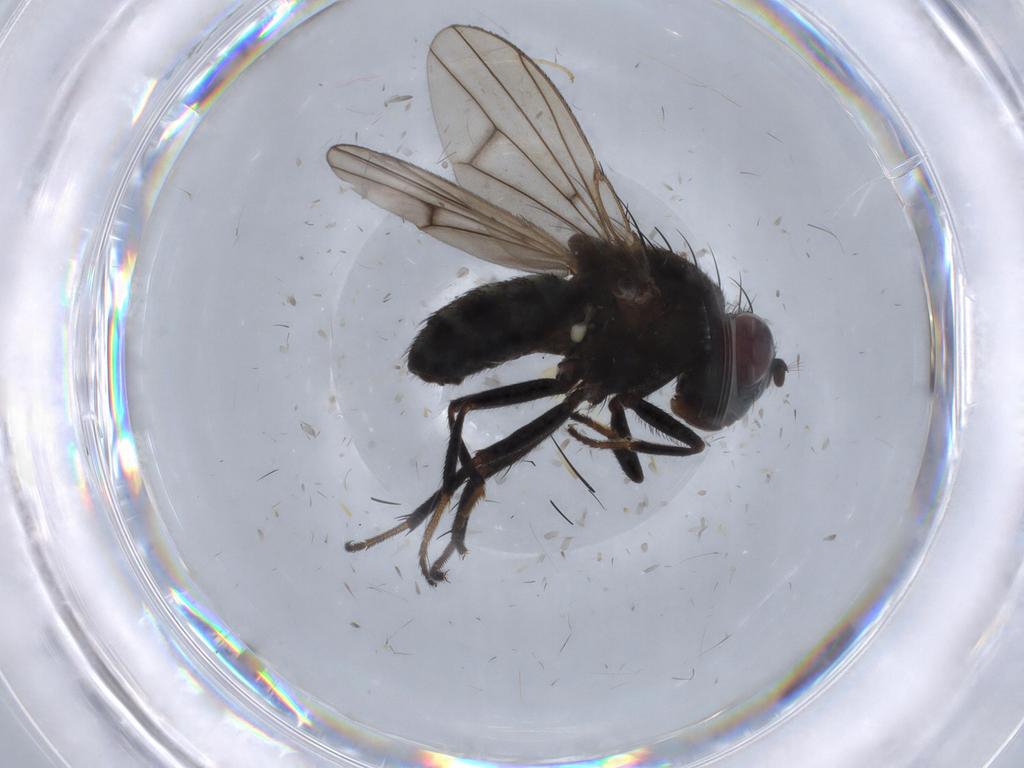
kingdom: Animalia
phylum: Arthropoda
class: Insecta
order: Diptera
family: Ephydridae
